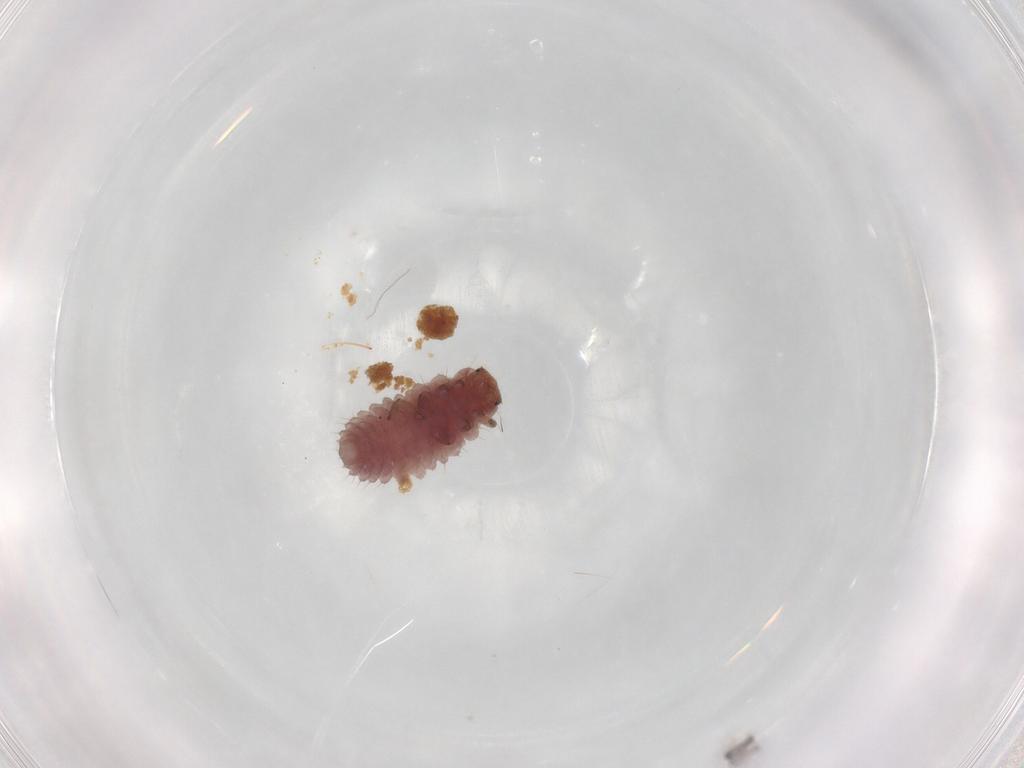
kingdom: Animalia
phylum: Arthropoda
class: Insecta
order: Coleoptera
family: Coccinellidae
